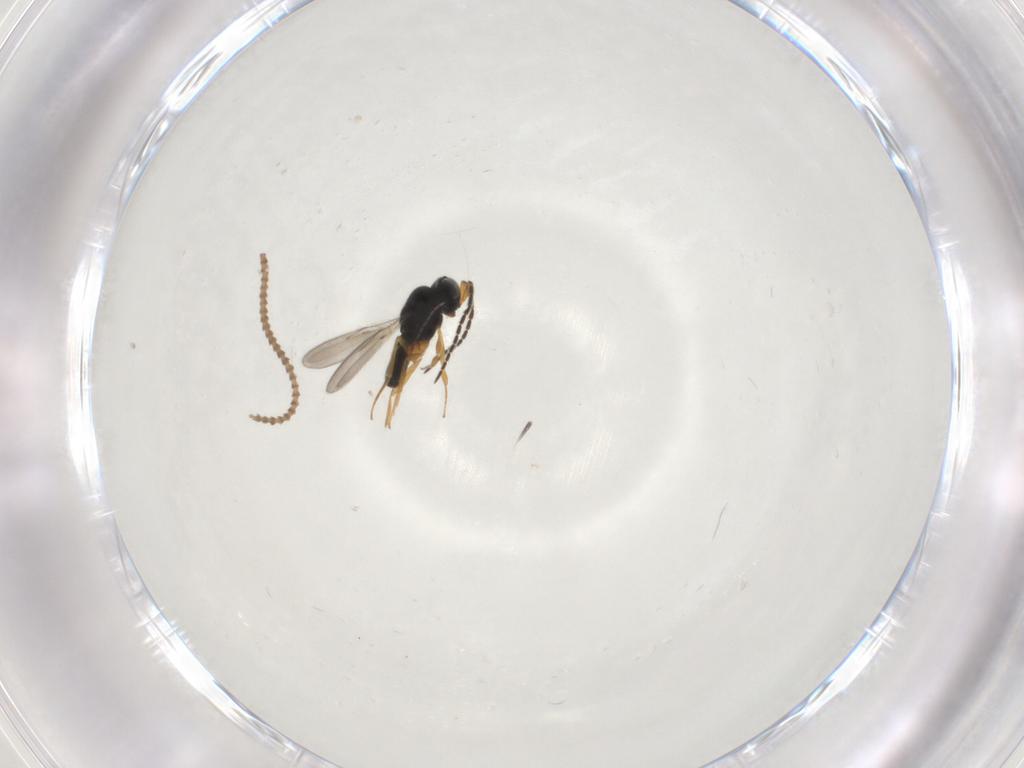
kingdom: Animalia
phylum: Arthropoda
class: Insecta
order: Hymenoptera
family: Scelionidae
